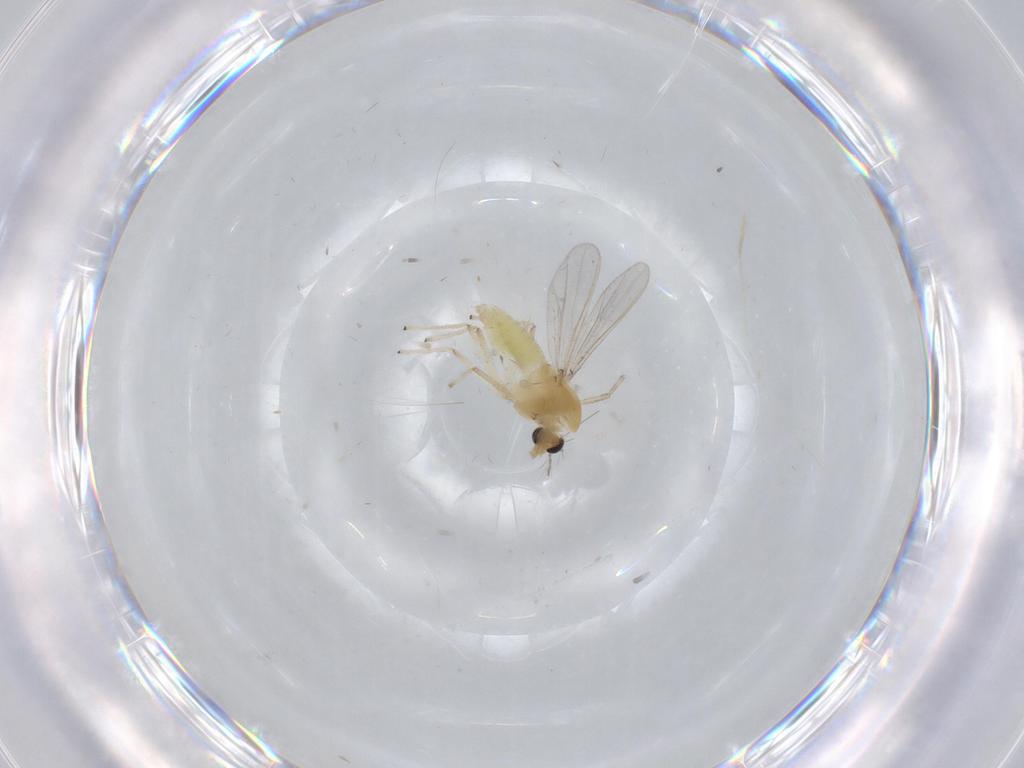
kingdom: Animalia
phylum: Arthropoda
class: Insecta
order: Diptera
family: Chironomidae
